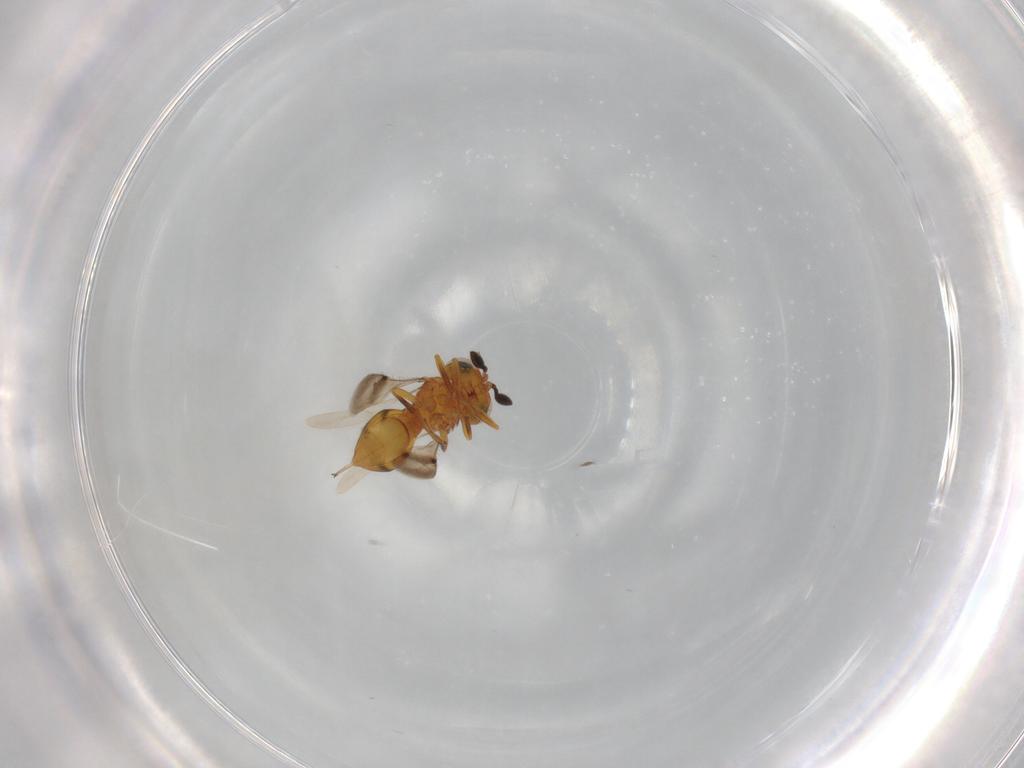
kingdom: Animalia
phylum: Arthropoda
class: Insecta
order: Hymenoptera
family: Scelionidae
